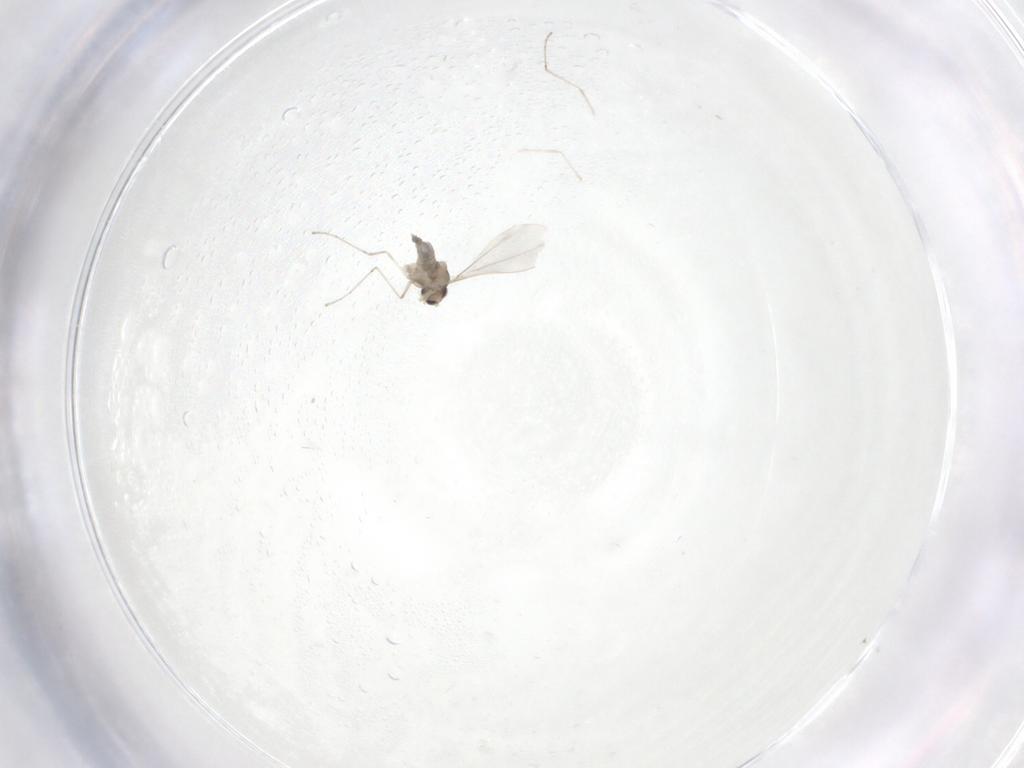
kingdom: Animalia
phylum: Arthropoda
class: Insecta
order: Diptera
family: Cecidomyiidae
